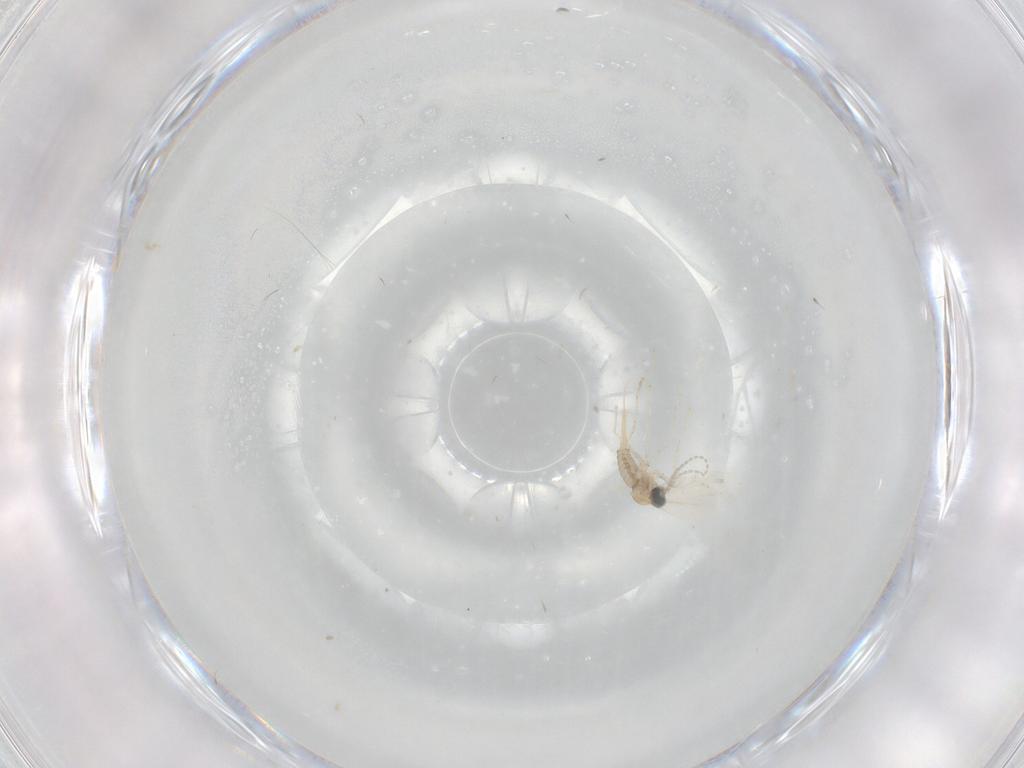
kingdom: Animalia
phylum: Arthropoda
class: Insecta
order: Diptera
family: Cecidomyiidae
